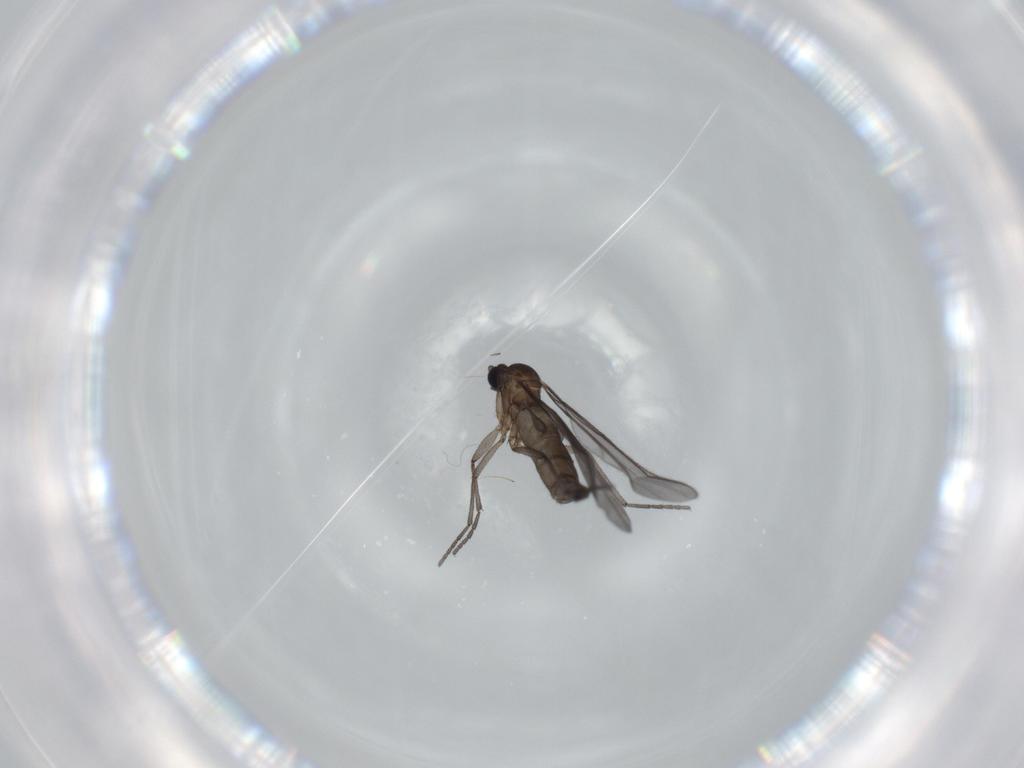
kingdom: Animalia
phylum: Arthropoda
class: Insecta
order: Diptera
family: Sciaridae
